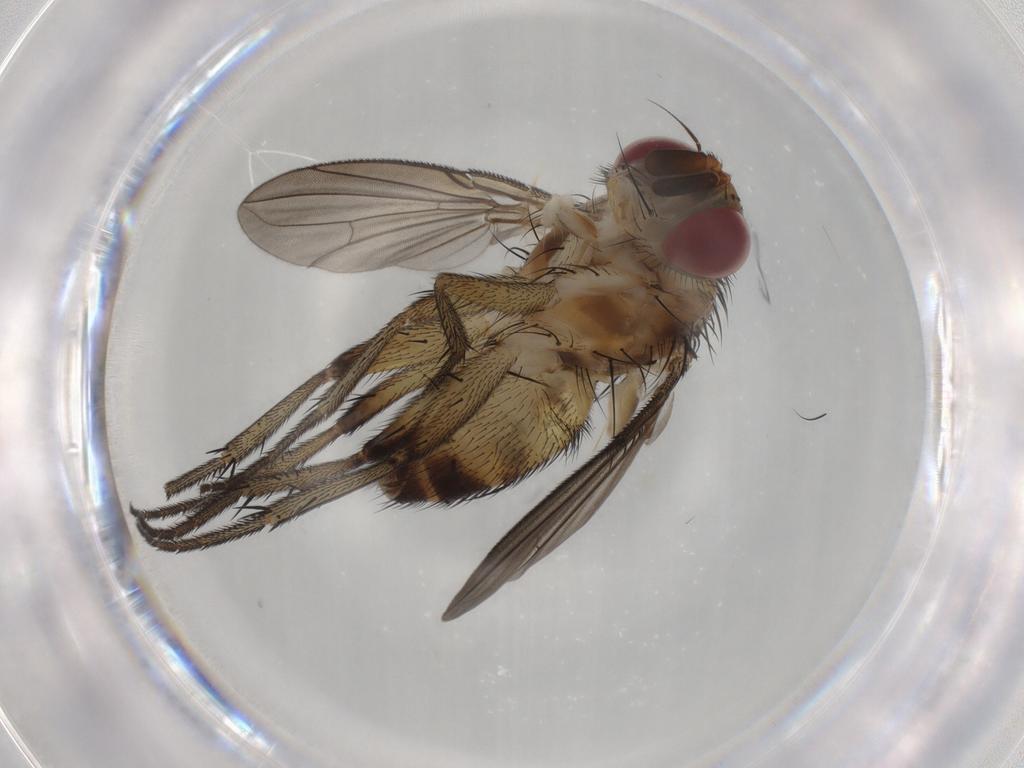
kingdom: Animalia
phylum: Arthropoda
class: Insecta
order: Diptera
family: Tachinidae
